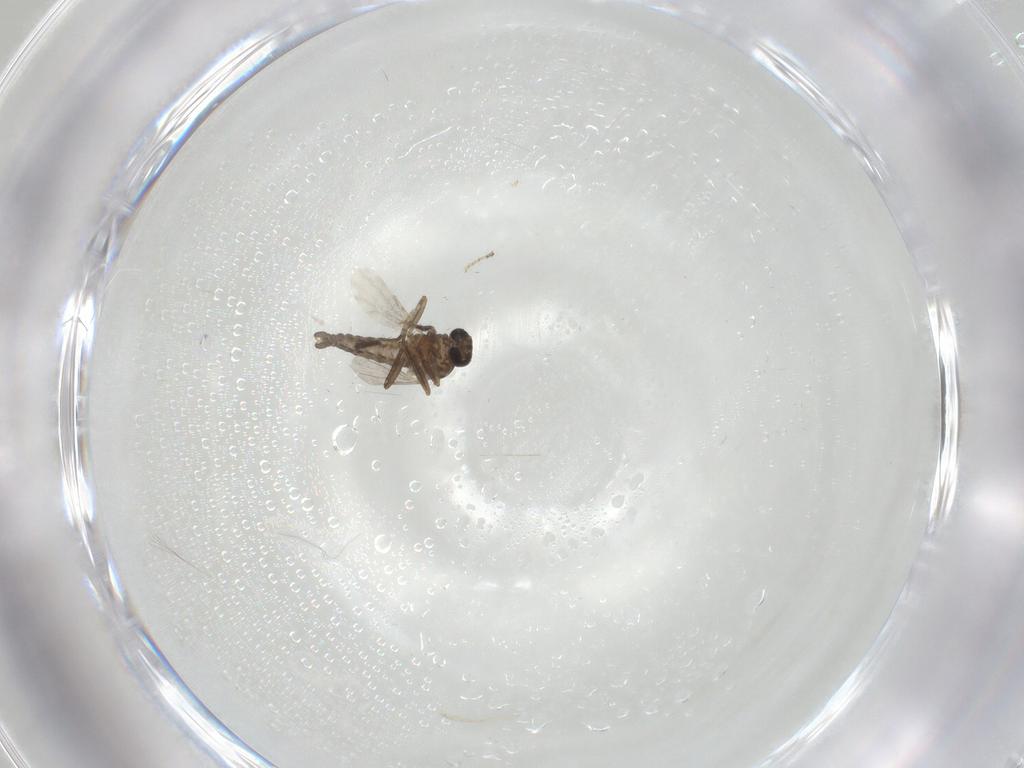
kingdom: Animalia
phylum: Arthropoda
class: Insecta
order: Diptera
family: Ceratopogonidae
